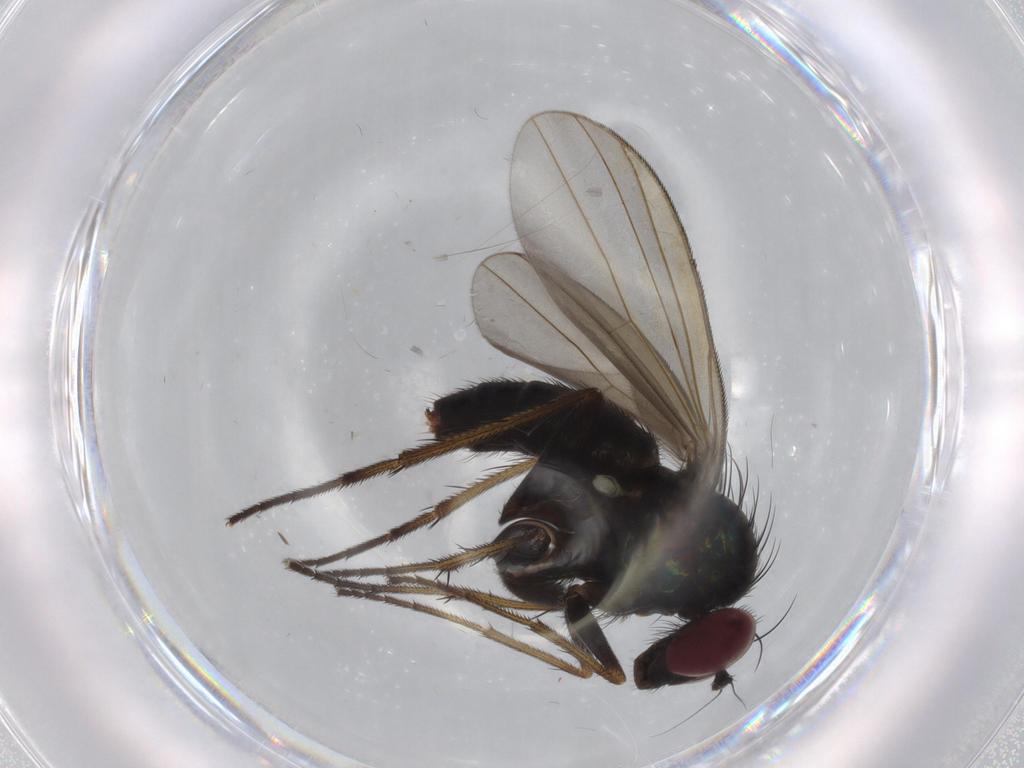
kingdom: Animalia
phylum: Arthropoda
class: Insecta
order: Diptera
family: Cecidomyiidae
